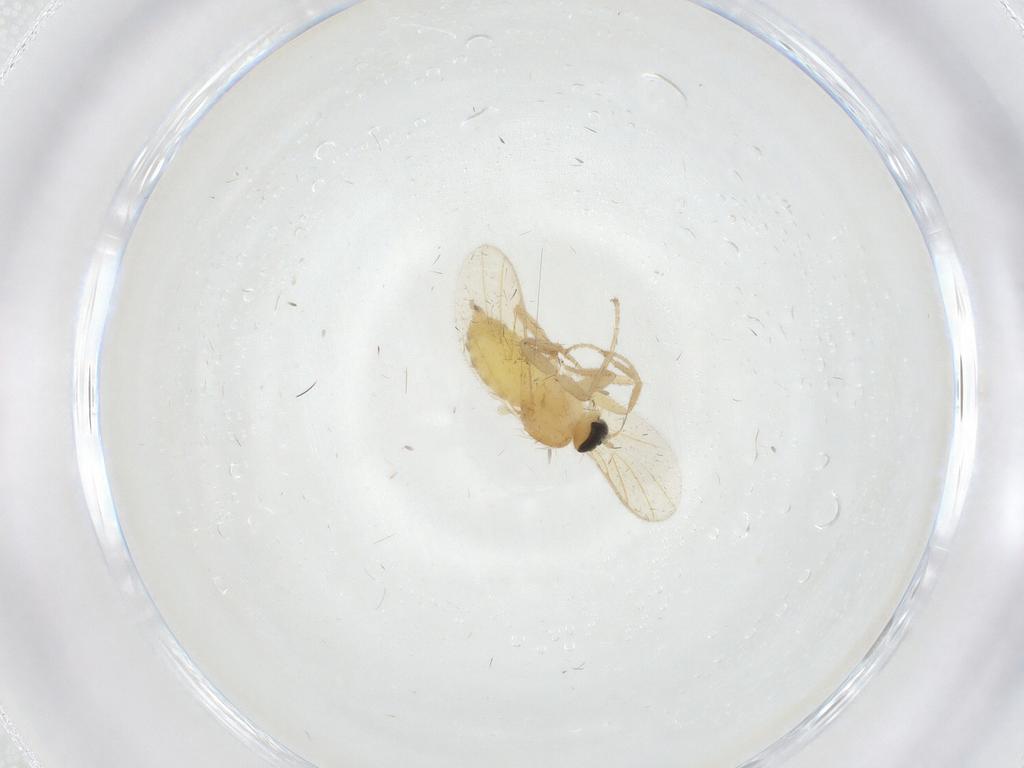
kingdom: Animalia
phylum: Arthropoda
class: Insecta
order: Diptera
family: Hybotidae
